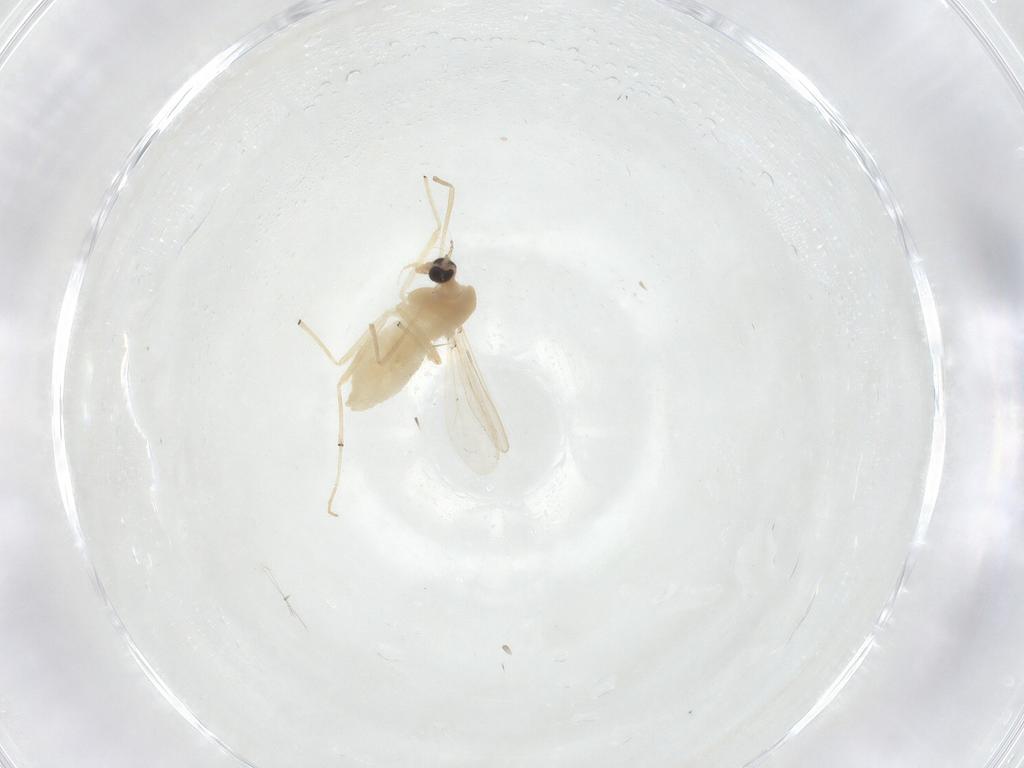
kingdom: Animalia
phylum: Arthropoda
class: Insecta
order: Diptera
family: Chironomidae
